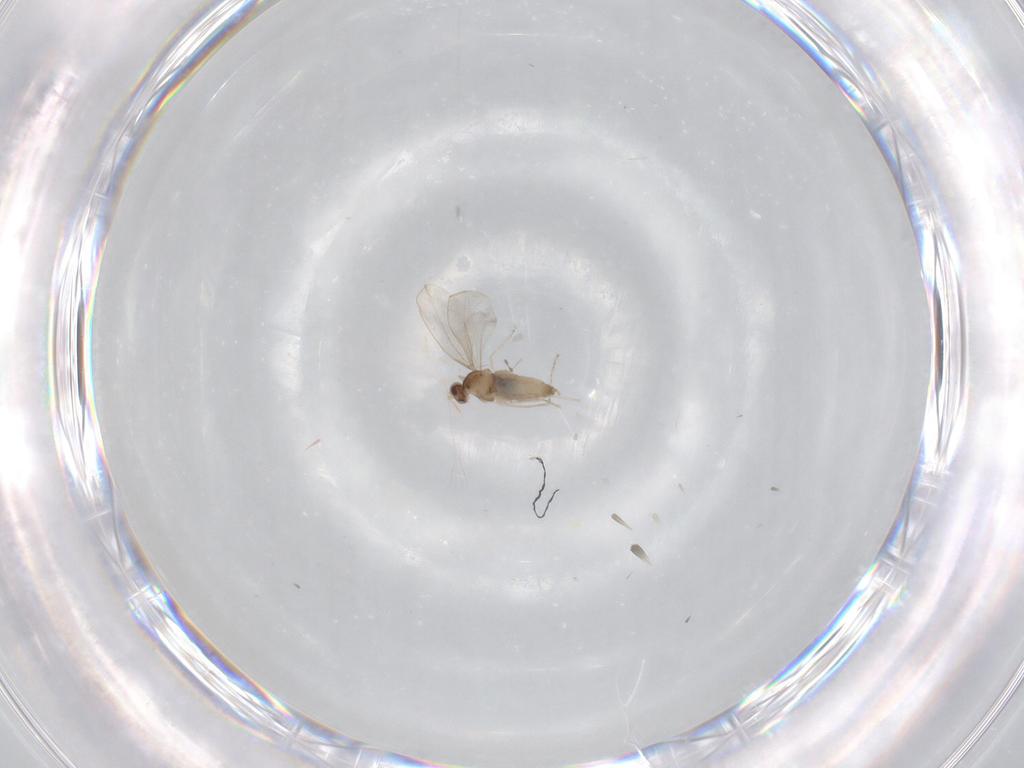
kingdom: Animalia
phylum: Arthropoda
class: Insecta
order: Diptera
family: Cecidomyiidae
